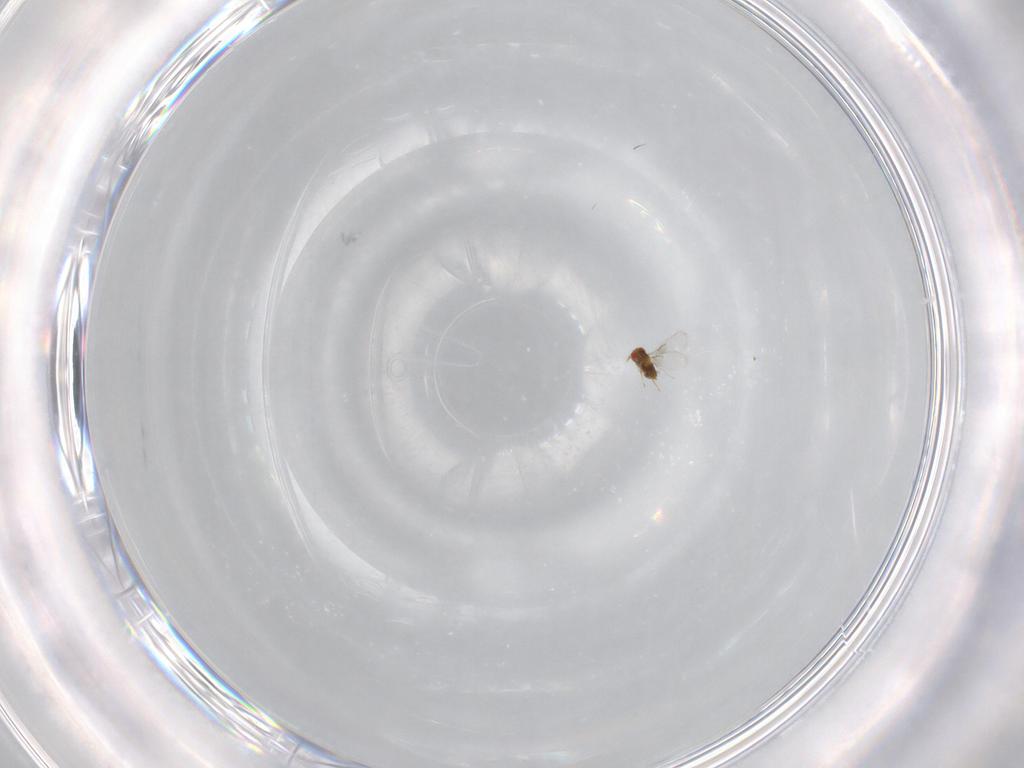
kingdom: Animalia
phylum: Arthropoda
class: Insecta
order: Hymenoptera
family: Trichogrammatidae
